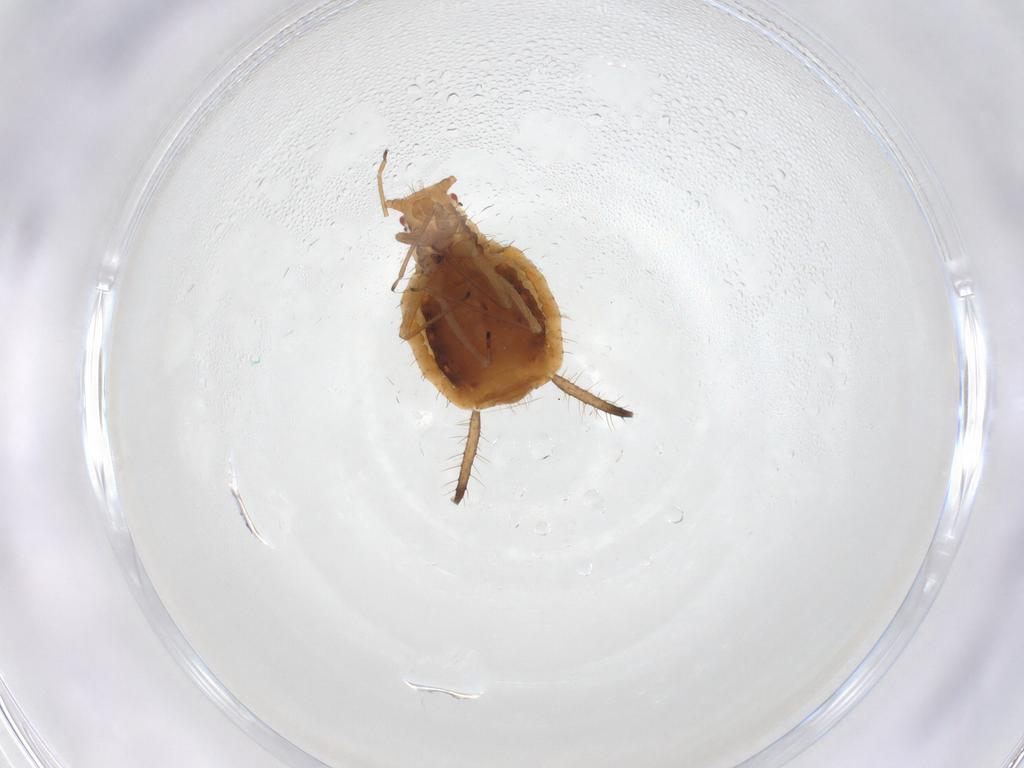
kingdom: Animalia
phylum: Arthropoda
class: Insecta
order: Hemiptera
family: Aphididae
